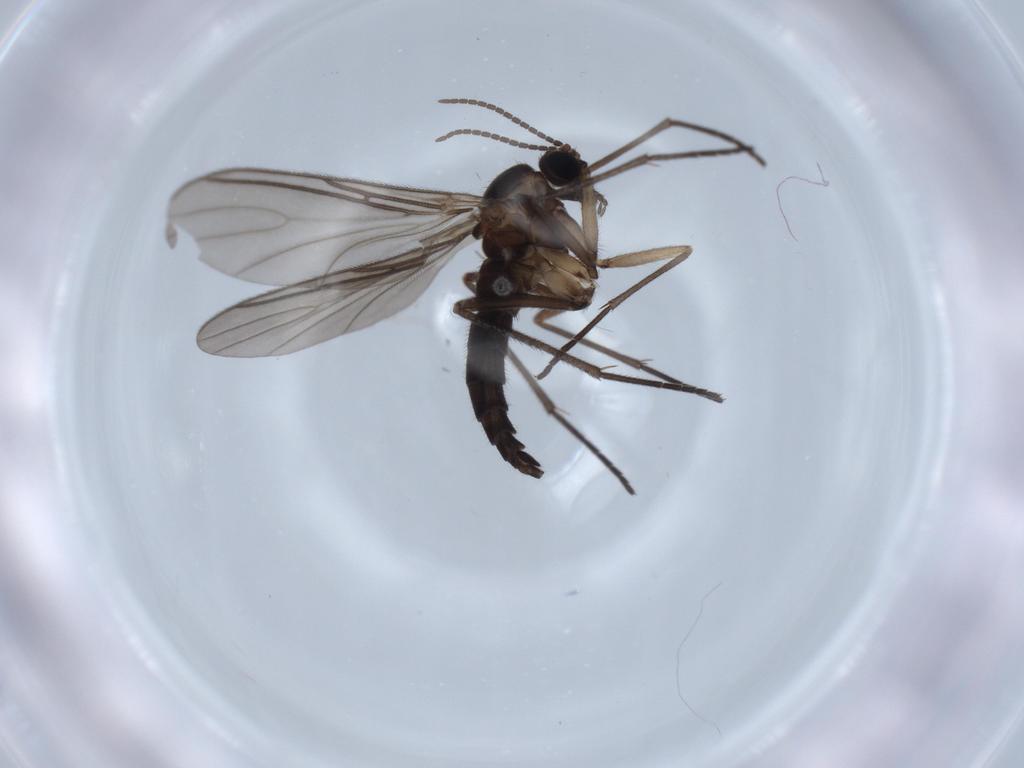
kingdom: Animalia
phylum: Arthropoda
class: Insecta
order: Diptera
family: Sciaridae
